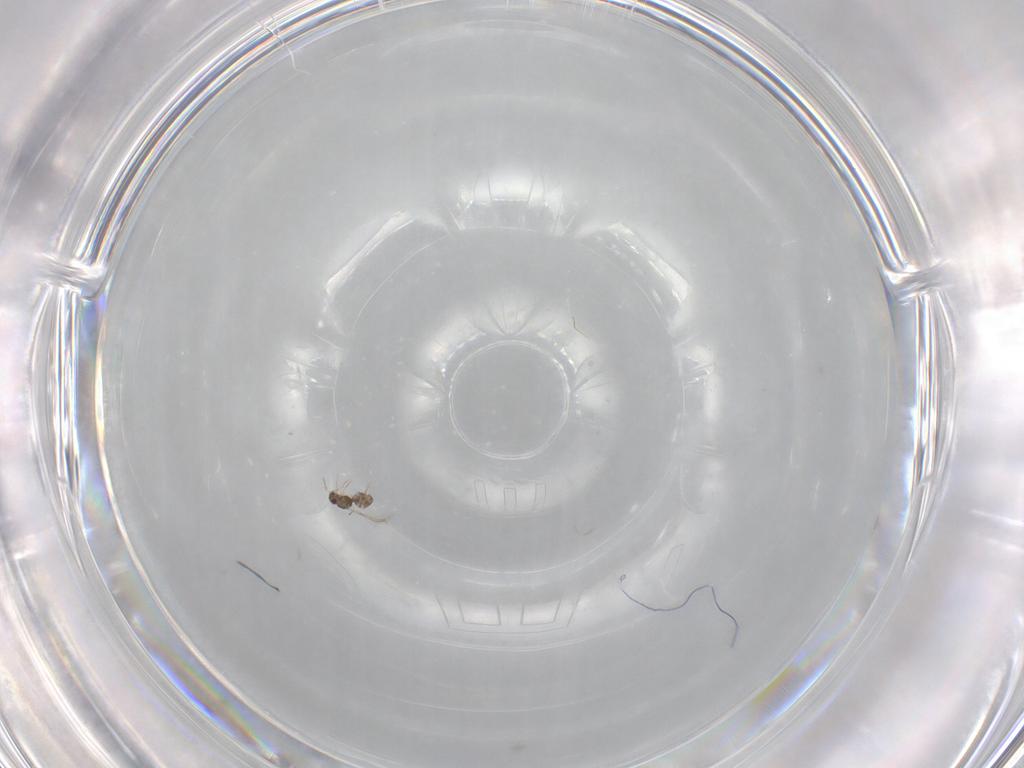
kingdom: Animalia
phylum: Arthropoda
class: Insecta
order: Hymenoptera
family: Mymaridae
